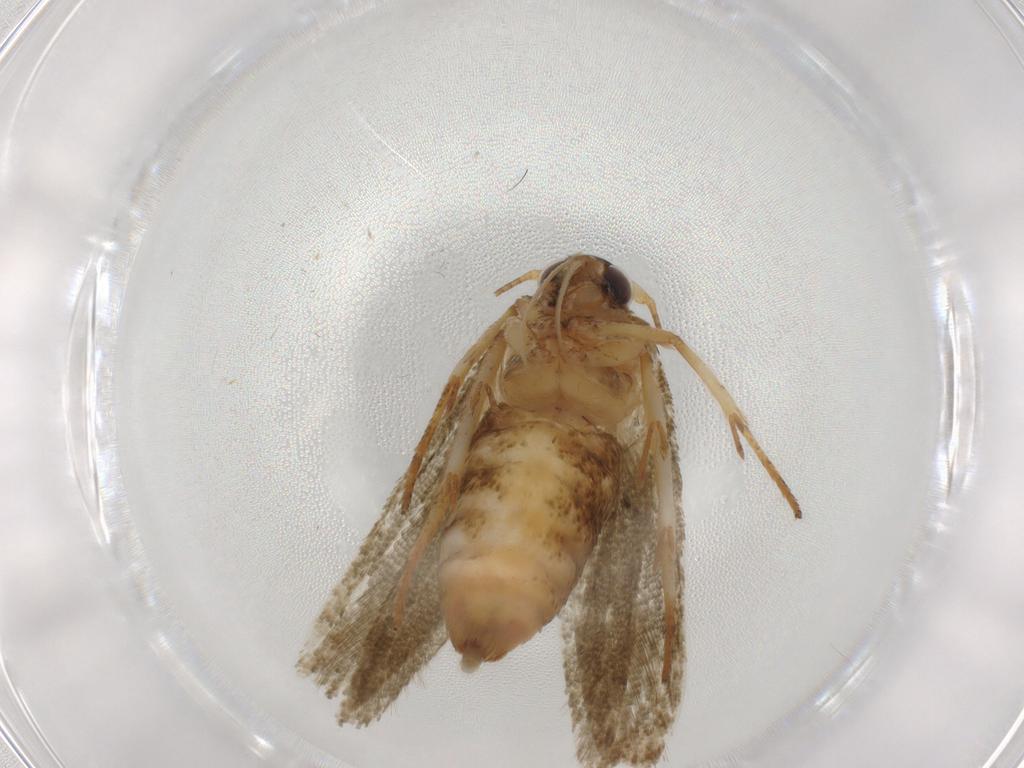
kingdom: Animalia
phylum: Arthropoda
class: Insecta
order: Lepidoptera
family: Blastobasidae
